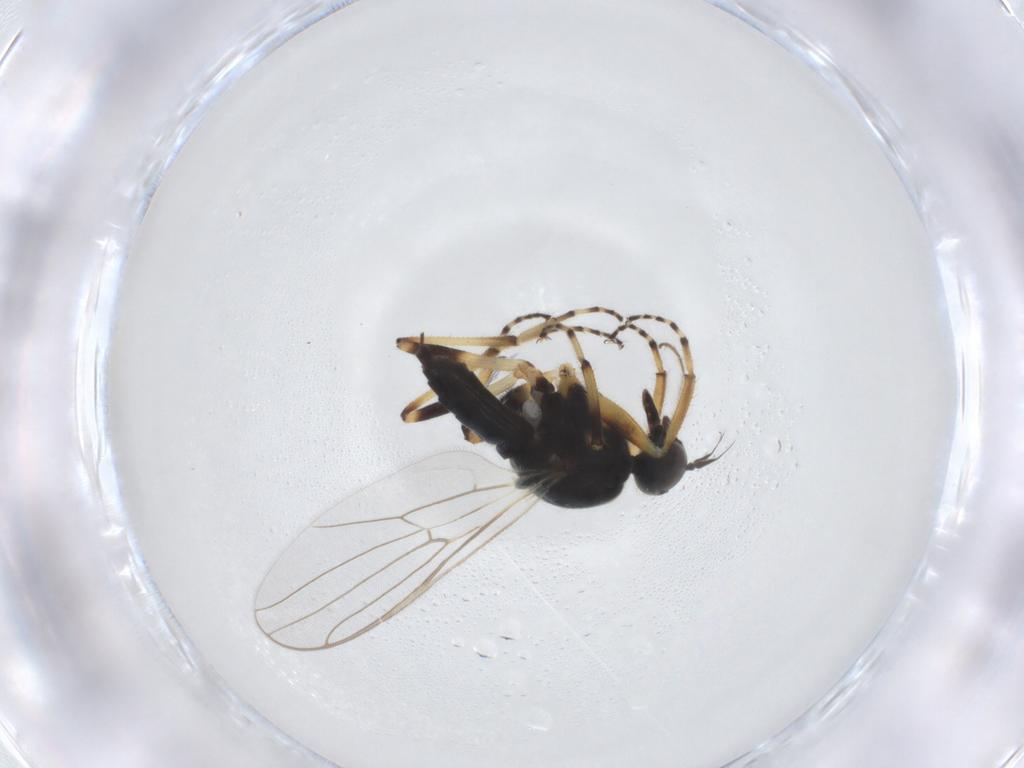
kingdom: Animalia
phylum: Arthropoda
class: Insecta
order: Diptera
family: Hybotidae
